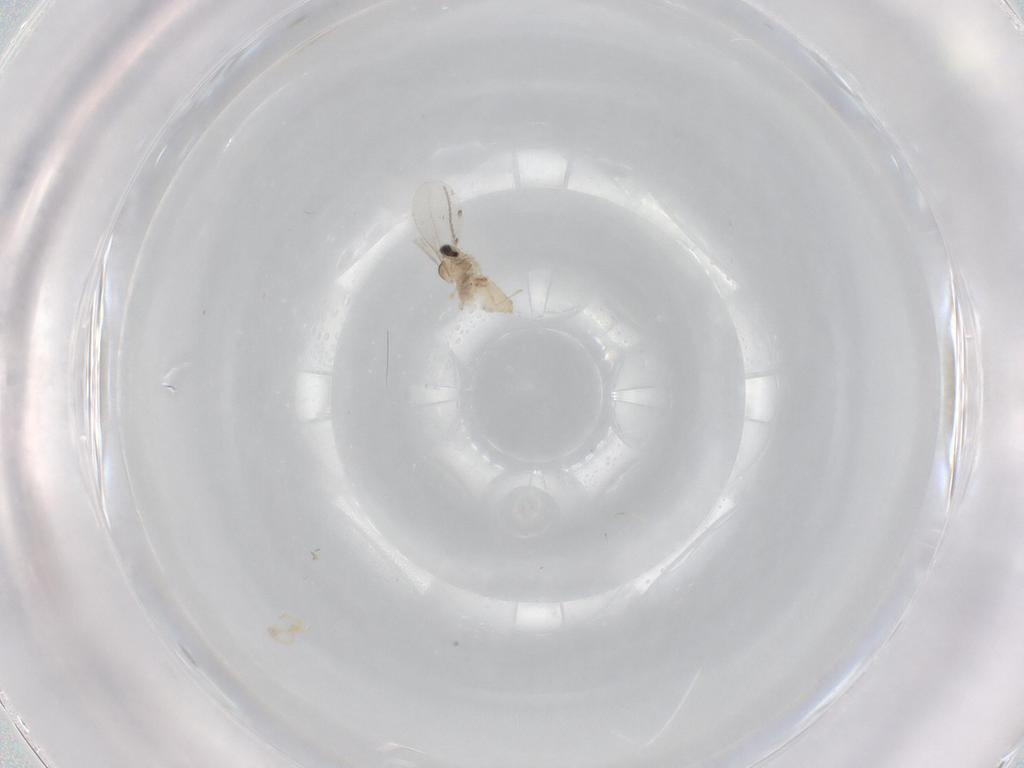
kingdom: Animalia
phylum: Arthropoda
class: Insecta
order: Diptera
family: Cecidomyiidae
